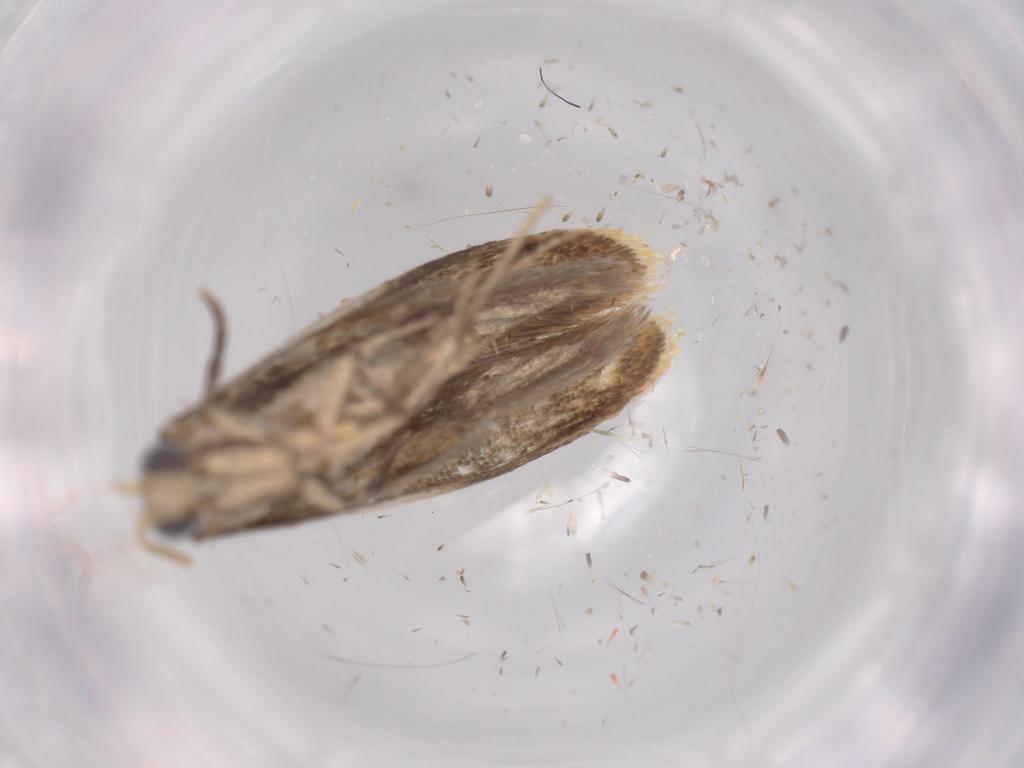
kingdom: Animalia
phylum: Arthropoda
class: Insecta
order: Lepidoptera
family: Tineidae
